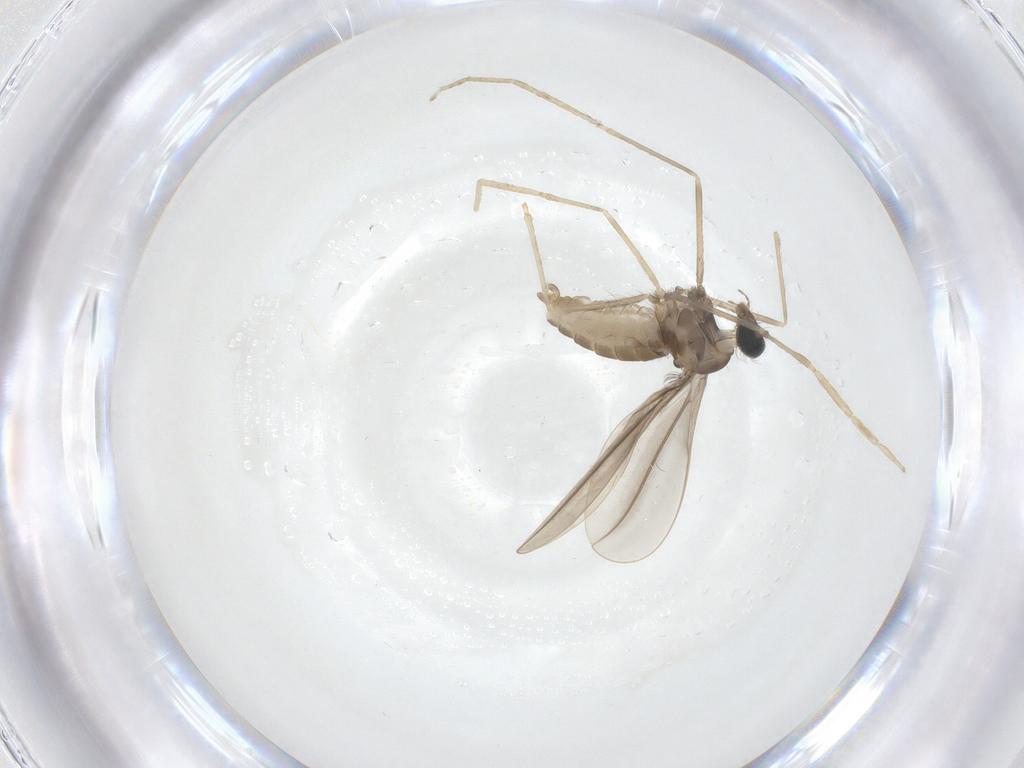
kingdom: Animalia
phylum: Arthropoda
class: Insecta
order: Diptera
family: Cecidomyiidae
